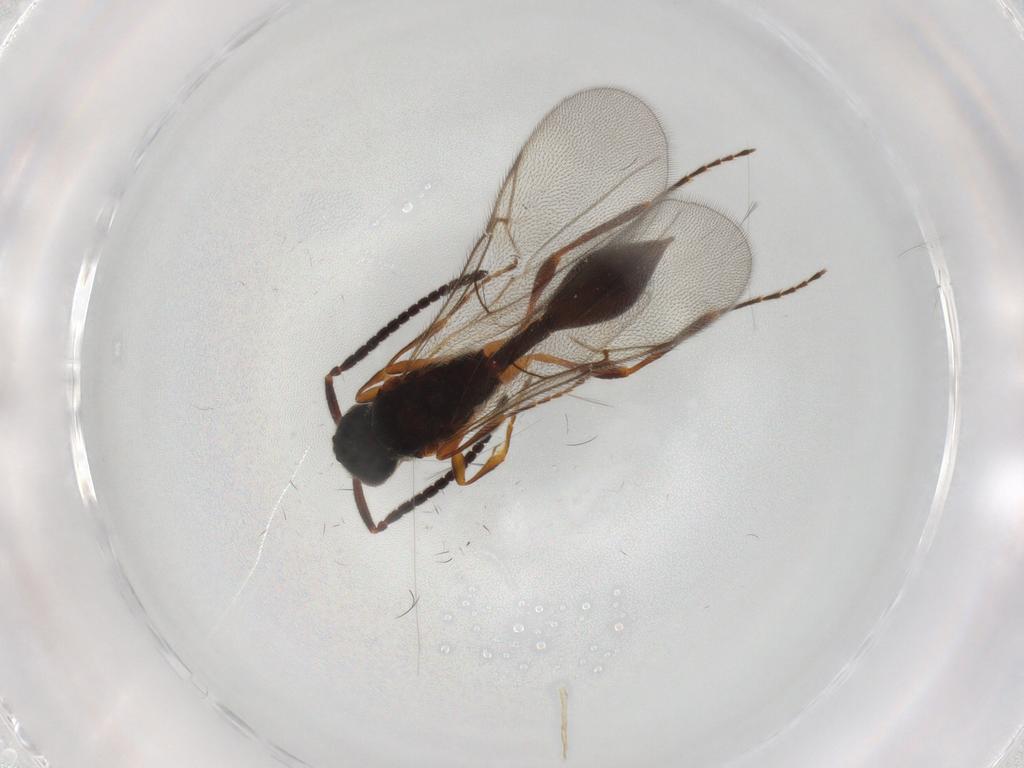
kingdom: Animalia
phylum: Arthropoda
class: Insecta
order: Hymenoptera
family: Diapriidae
